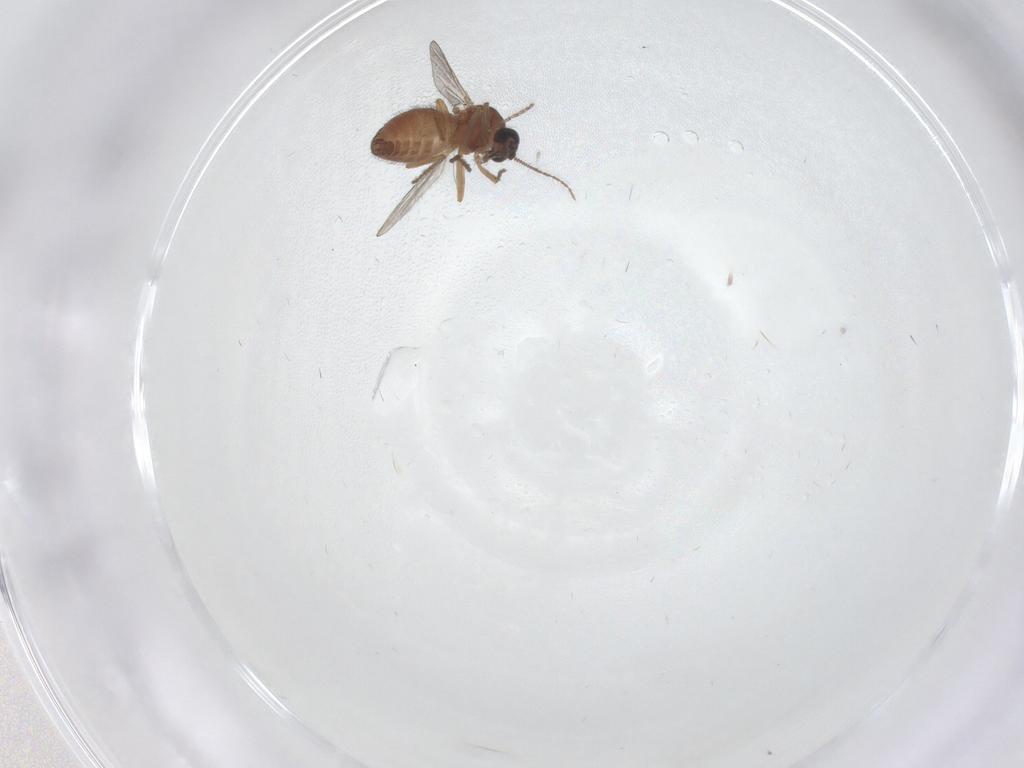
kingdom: Animalia
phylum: Arthropoda
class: Insecta
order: Diptera
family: Ceratopogonidae
